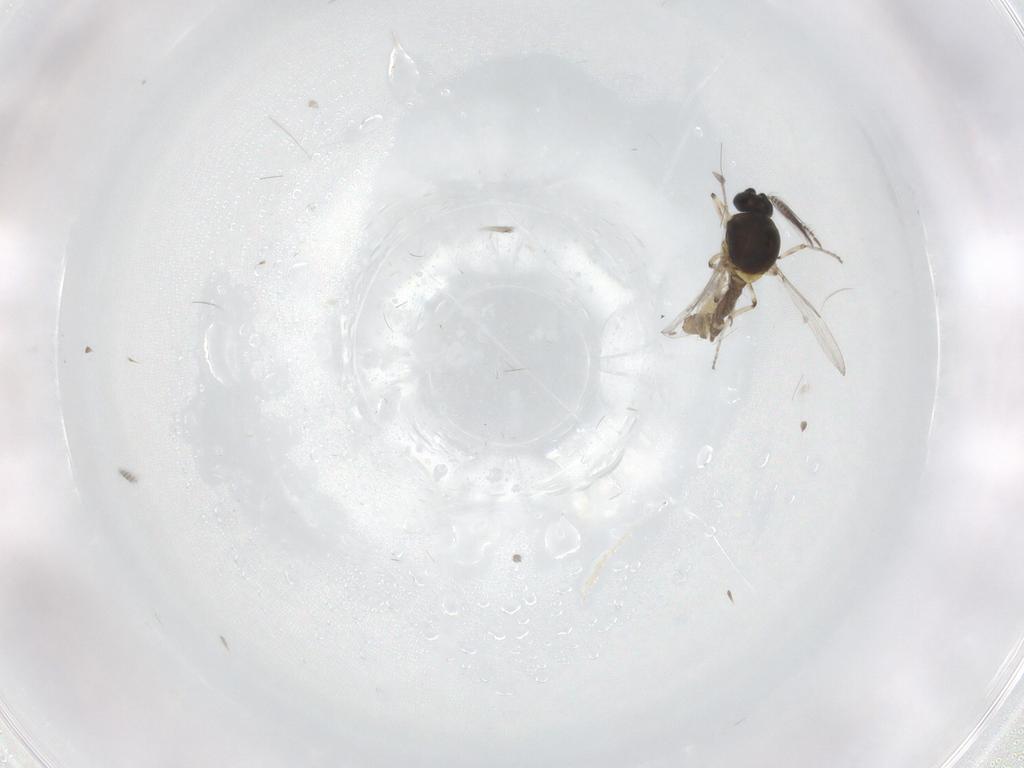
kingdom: Animalia
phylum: Arthropoda
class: Insecta
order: Diptera
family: Ceratopogonidae
